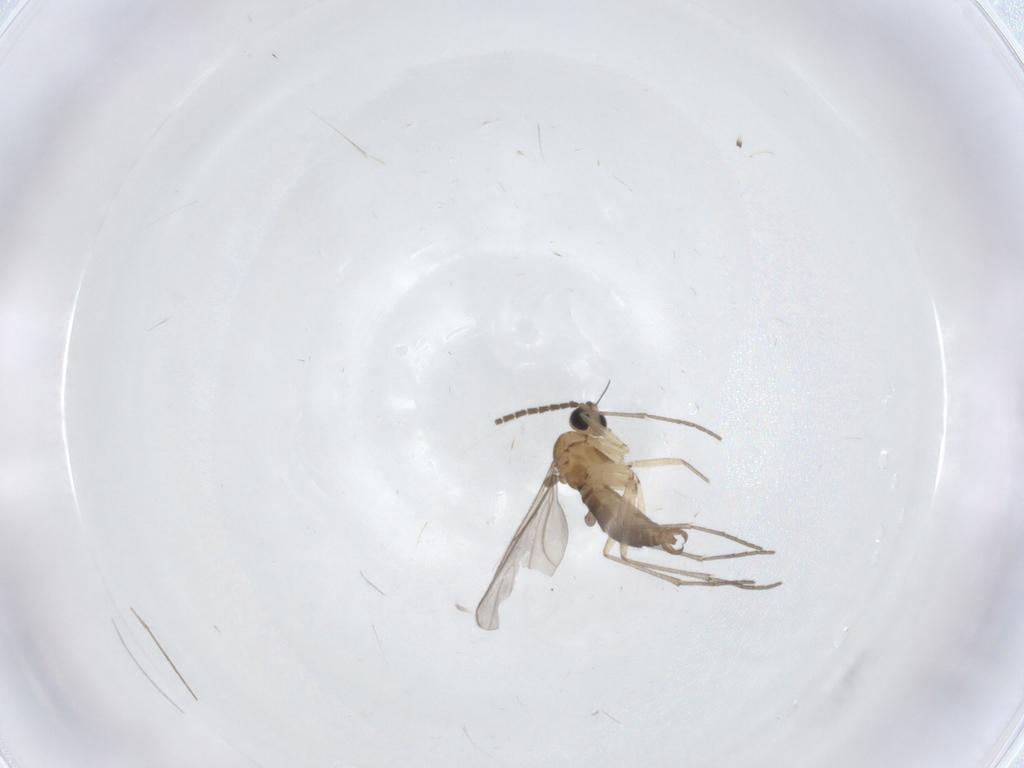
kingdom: Animalia
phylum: Arthropoda
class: Insecta
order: Diptera
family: Sciaridae
